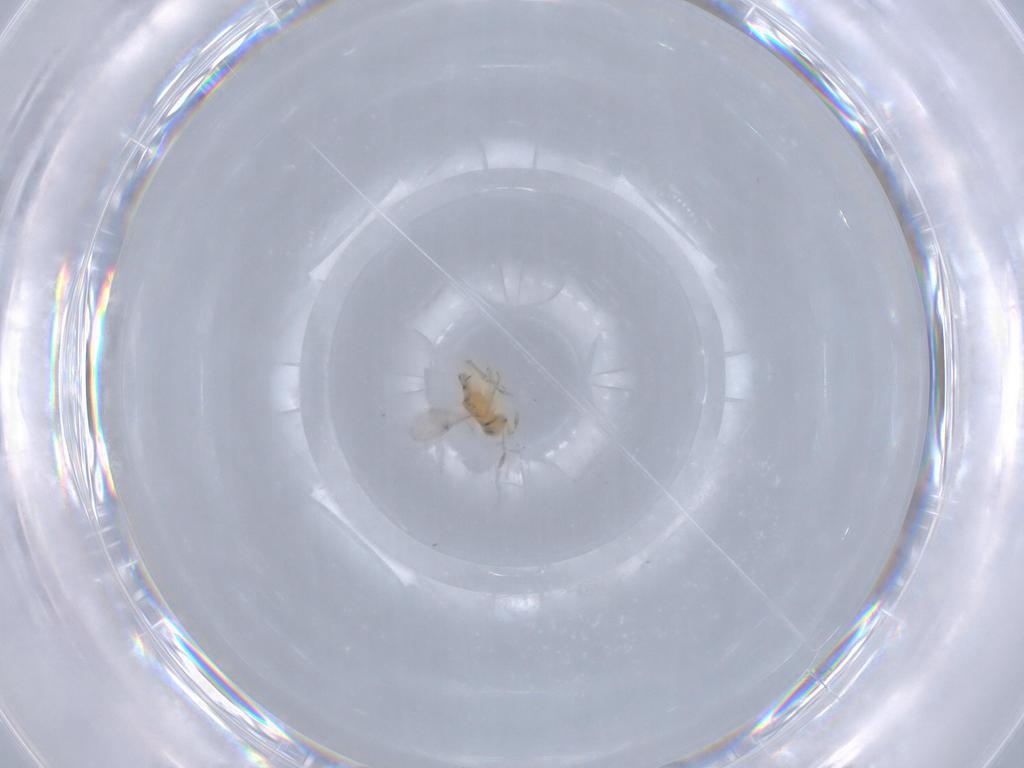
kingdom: Animalia
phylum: Arthropoda
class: Insecta
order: Hymenoptera
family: Encyrtidae
